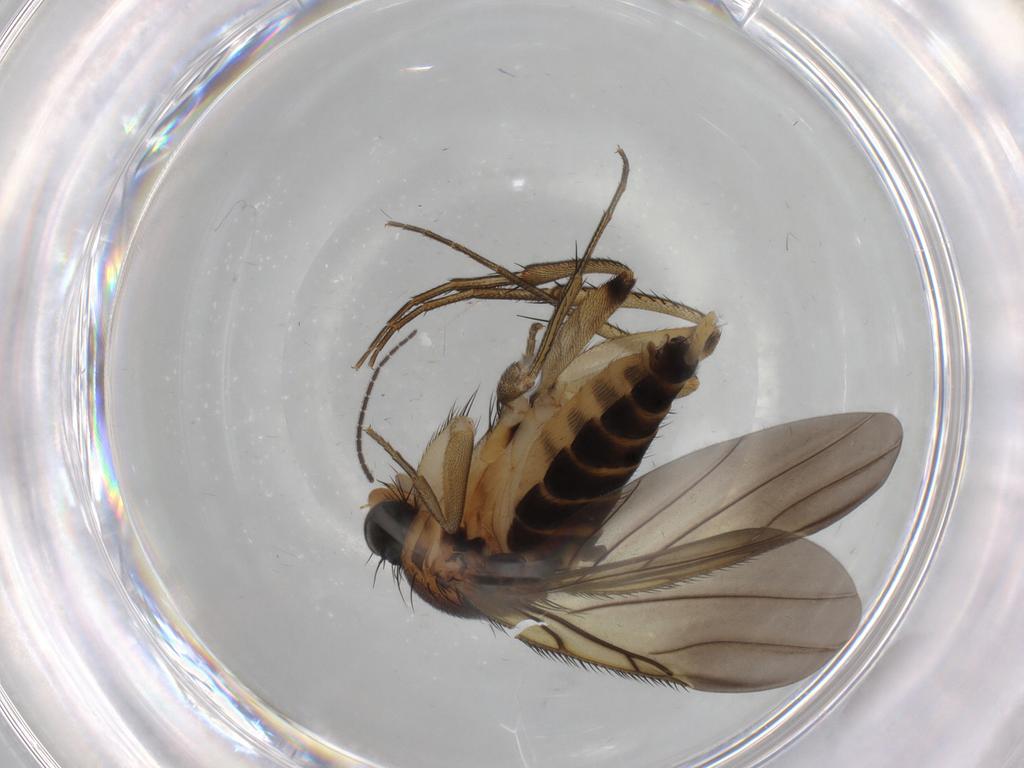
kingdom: Animalia
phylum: Arthropoda
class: Insecta
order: Diptera
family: Phoridae
